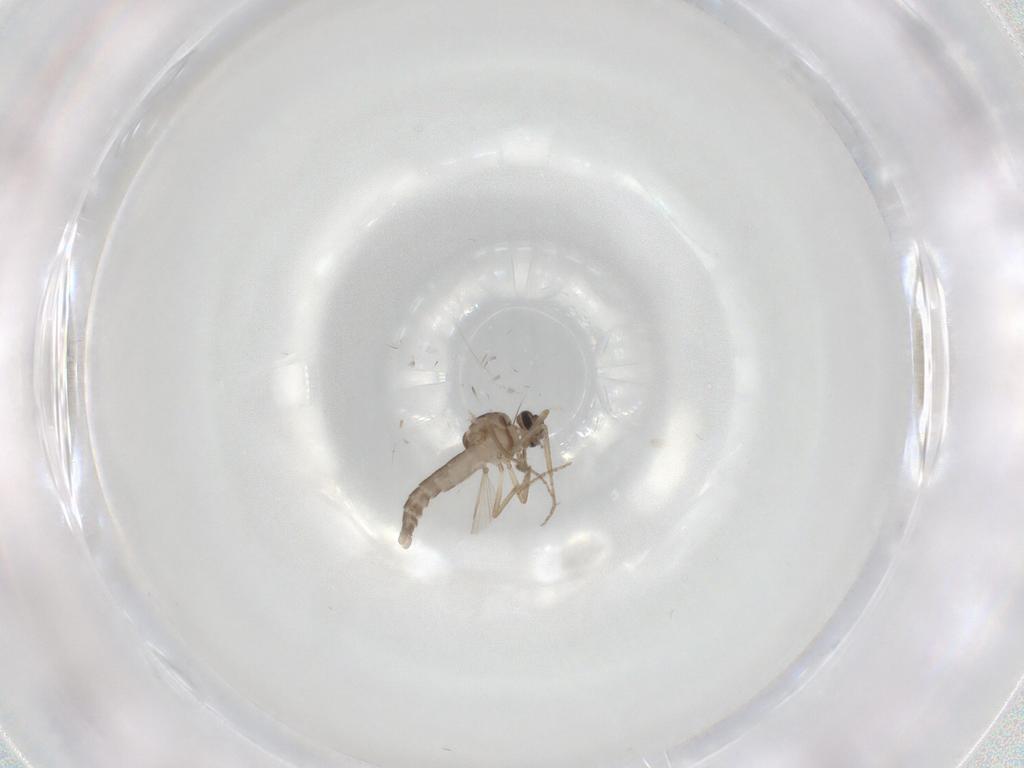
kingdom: Animalia
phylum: Arthropoda
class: Insecta
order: Diptera
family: Ceratopogonidae
